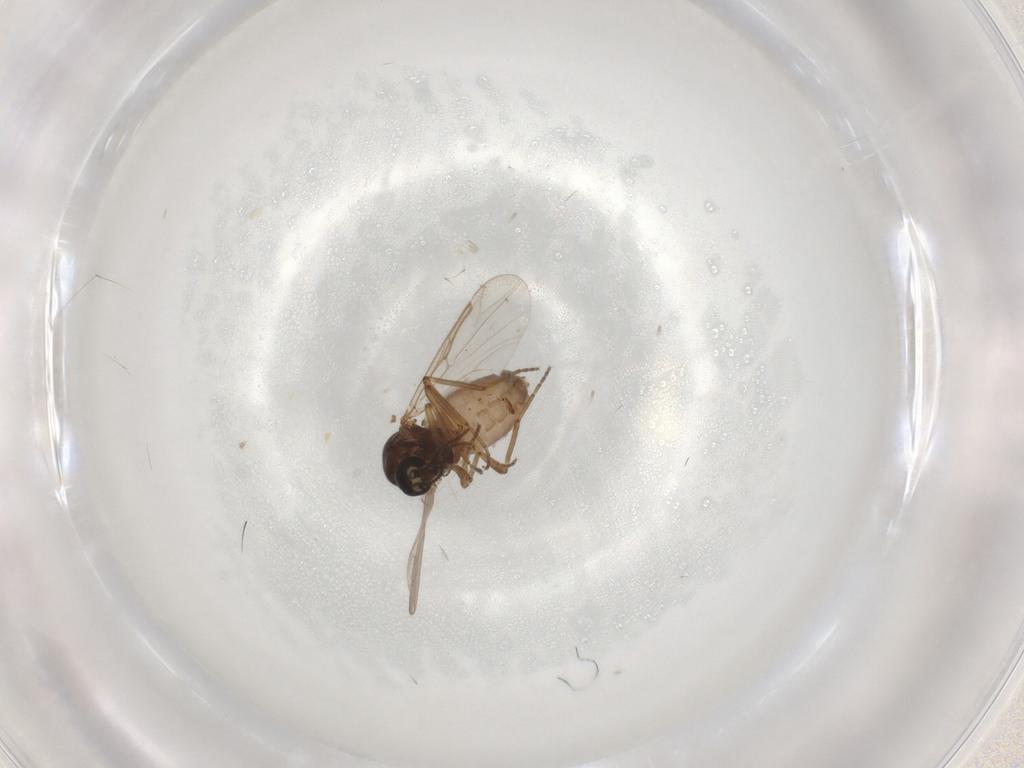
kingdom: Animalia
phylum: Arthropoda
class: Insecta
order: Diptera
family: Ceratopogonidae
